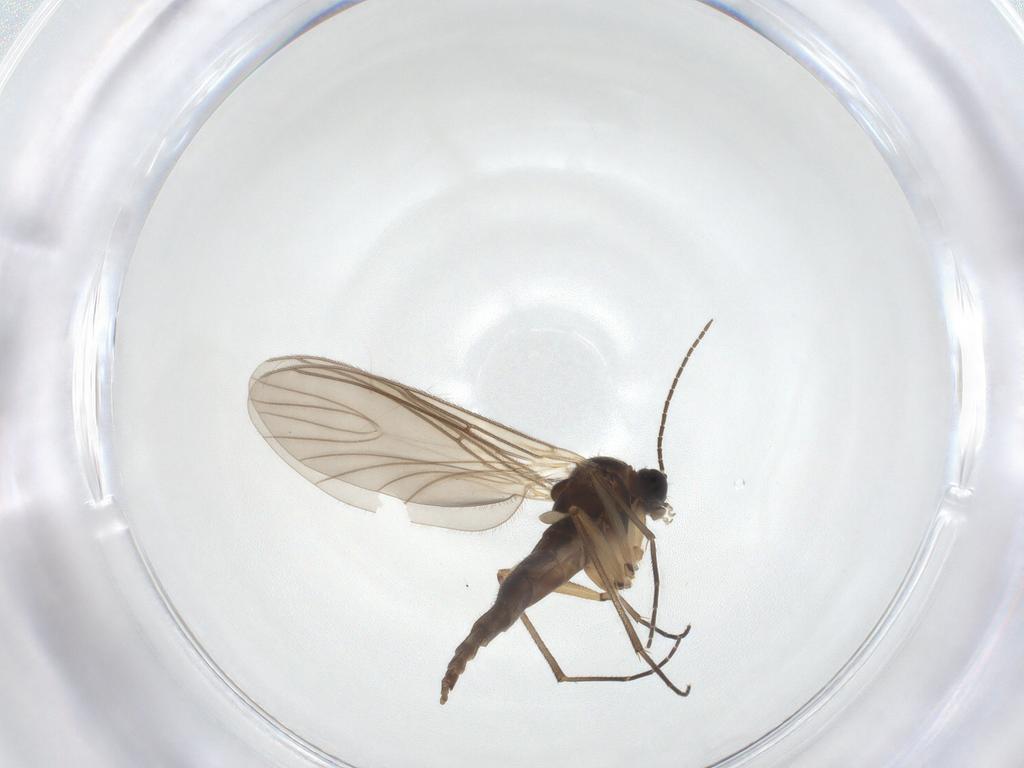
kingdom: Animalia
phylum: Arthropoda
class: Insecta
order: Diptera
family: Sciaridae
